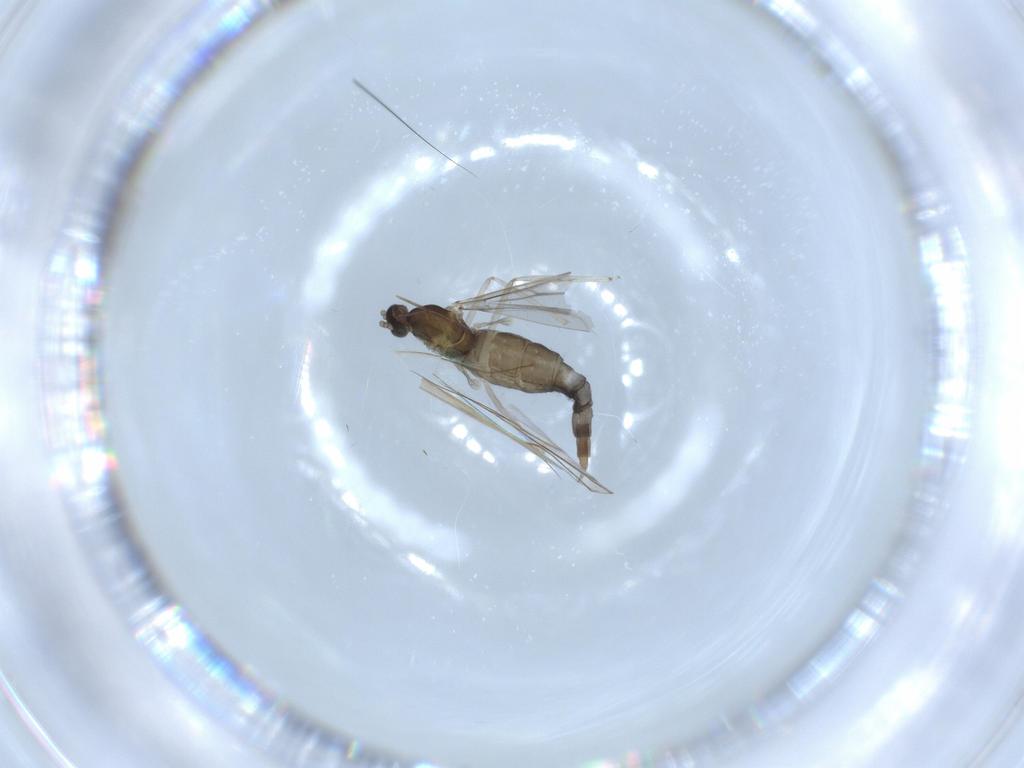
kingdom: Animalia
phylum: Arthropoda
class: Insecta
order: Diptera
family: Cecidomyiidae
